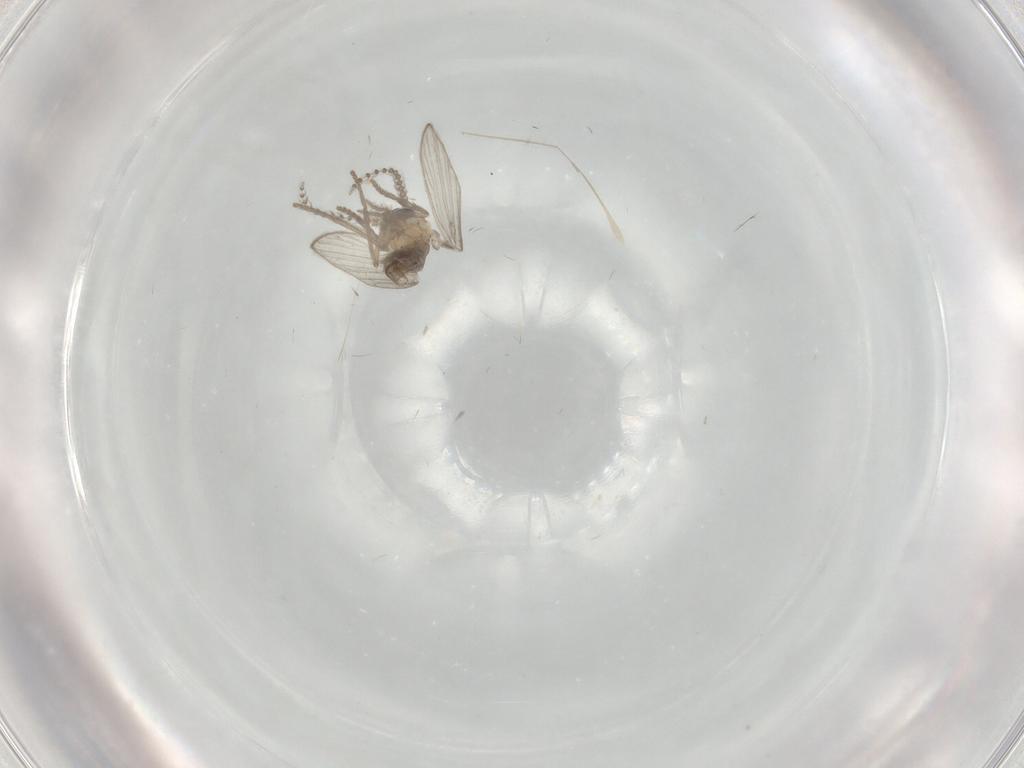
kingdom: Animalia
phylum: Arthropoda
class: Insecta
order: Diptera
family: Psychodidae
